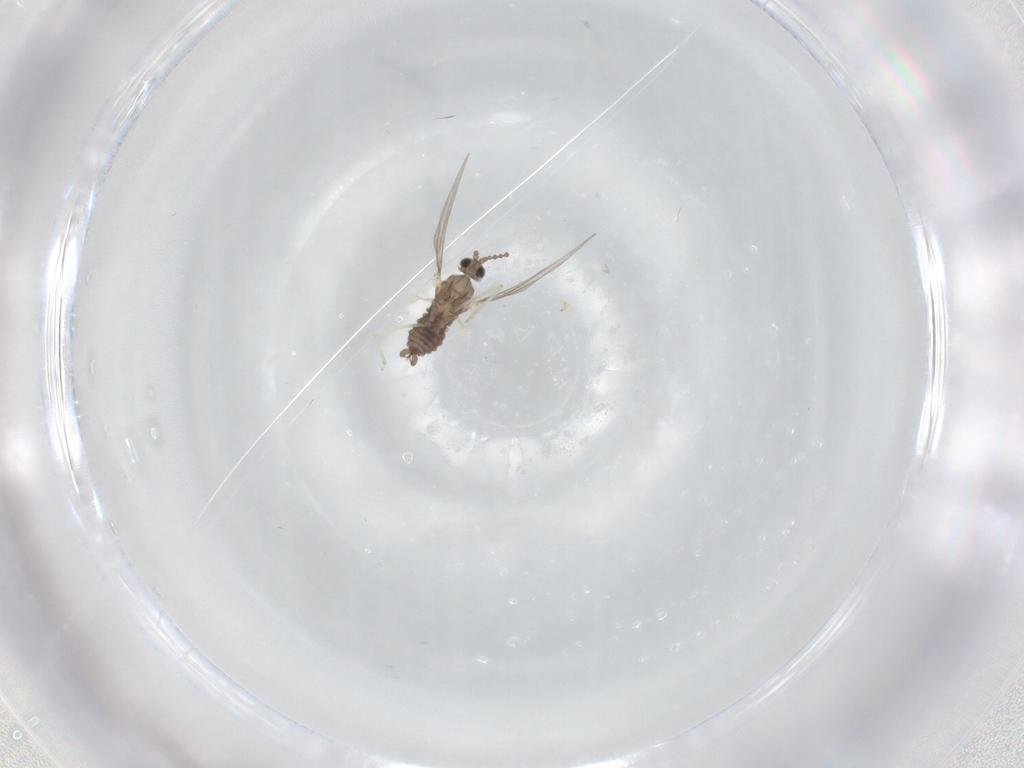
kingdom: Animalia
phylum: Arthropoda
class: Insecta
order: Diptera
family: Cecidomyiidae
